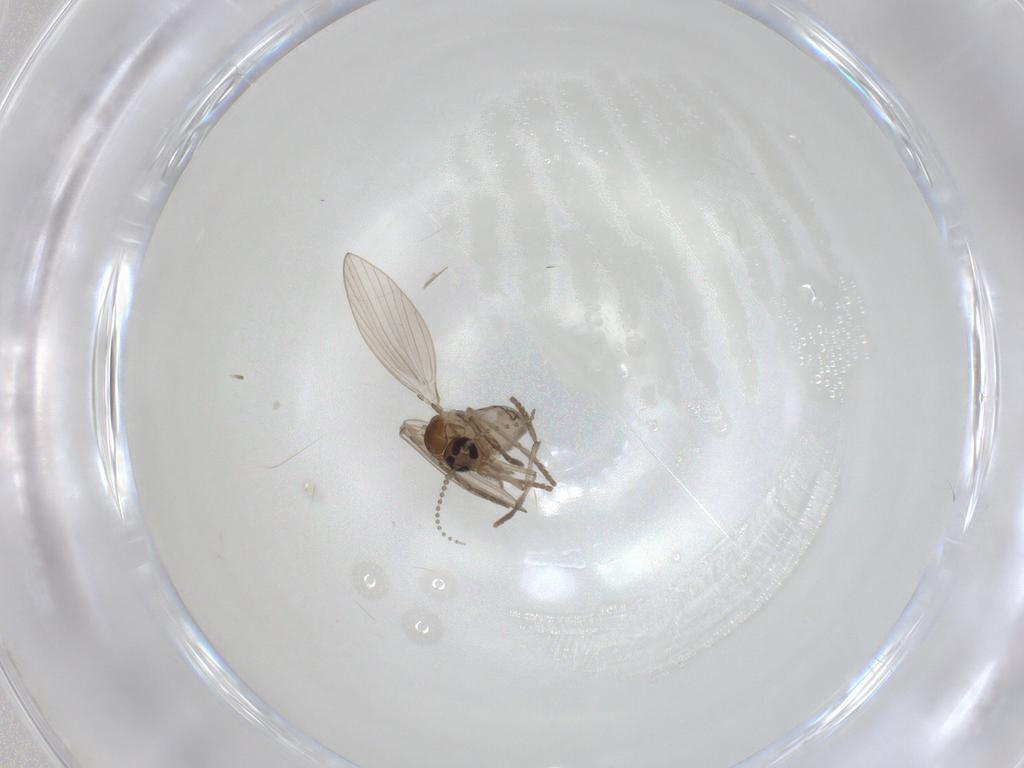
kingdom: Animalia
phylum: Arthropoda
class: Insecta
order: Diptera
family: Psychodidae
